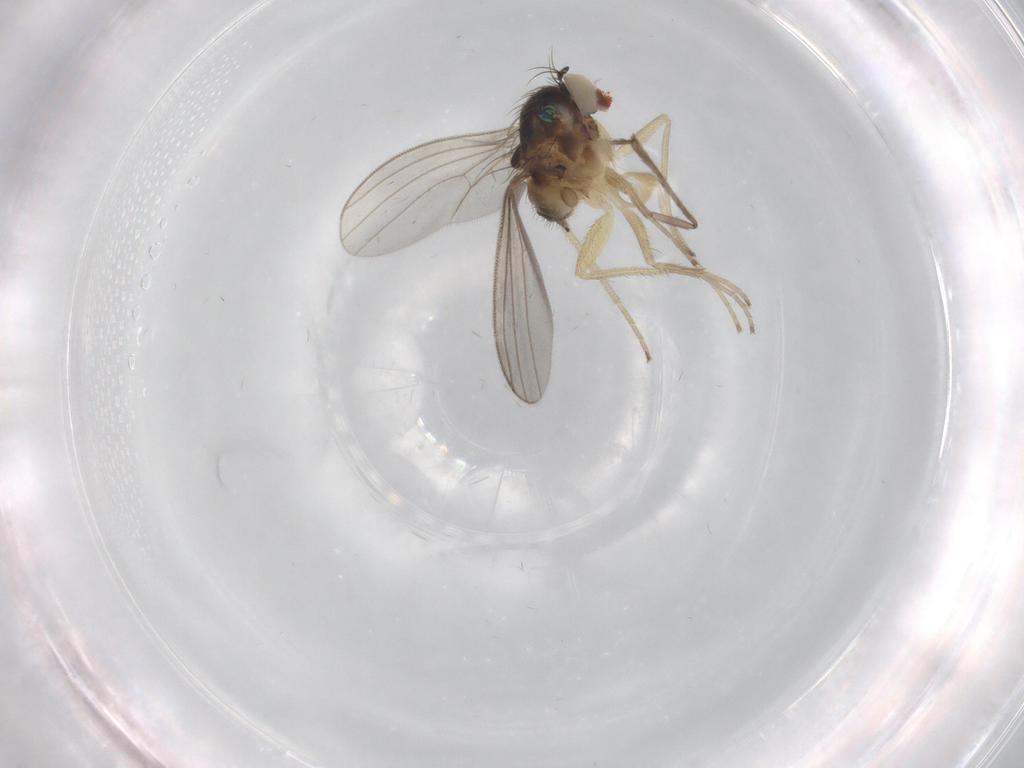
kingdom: Animalia
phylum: Arthropoda
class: Insecta
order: Diptera
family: Dolichopodidae
